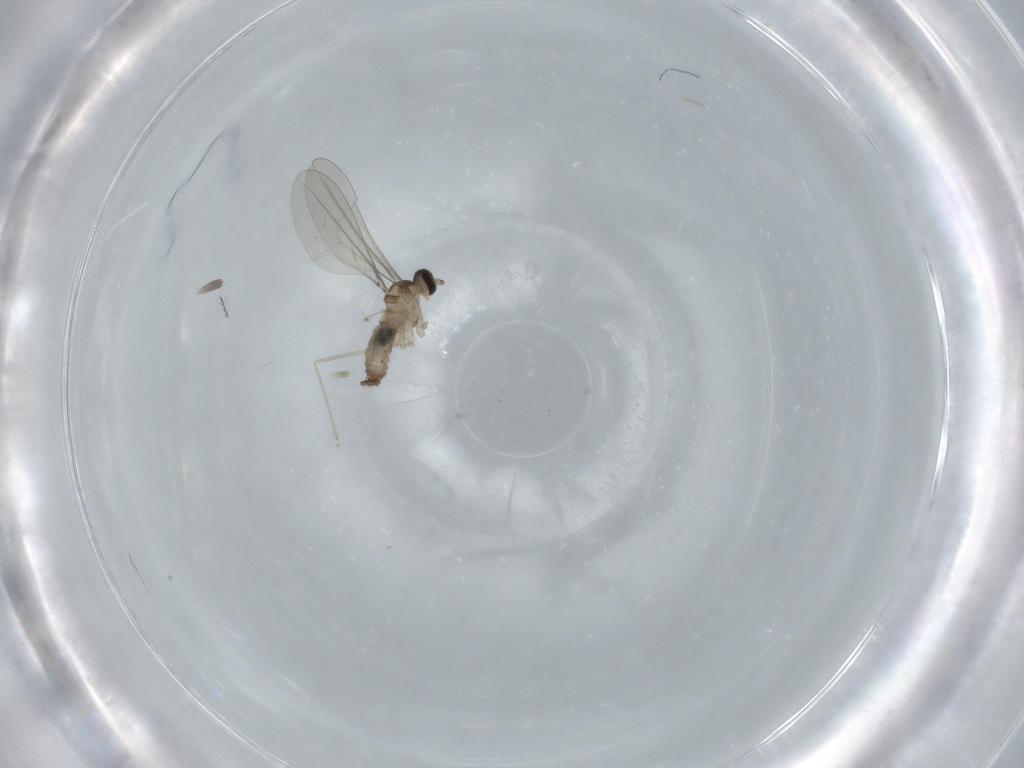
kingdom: Animalia
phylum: Arthropoda
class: Insecta
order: Diptera
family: Cecidomyiidae
